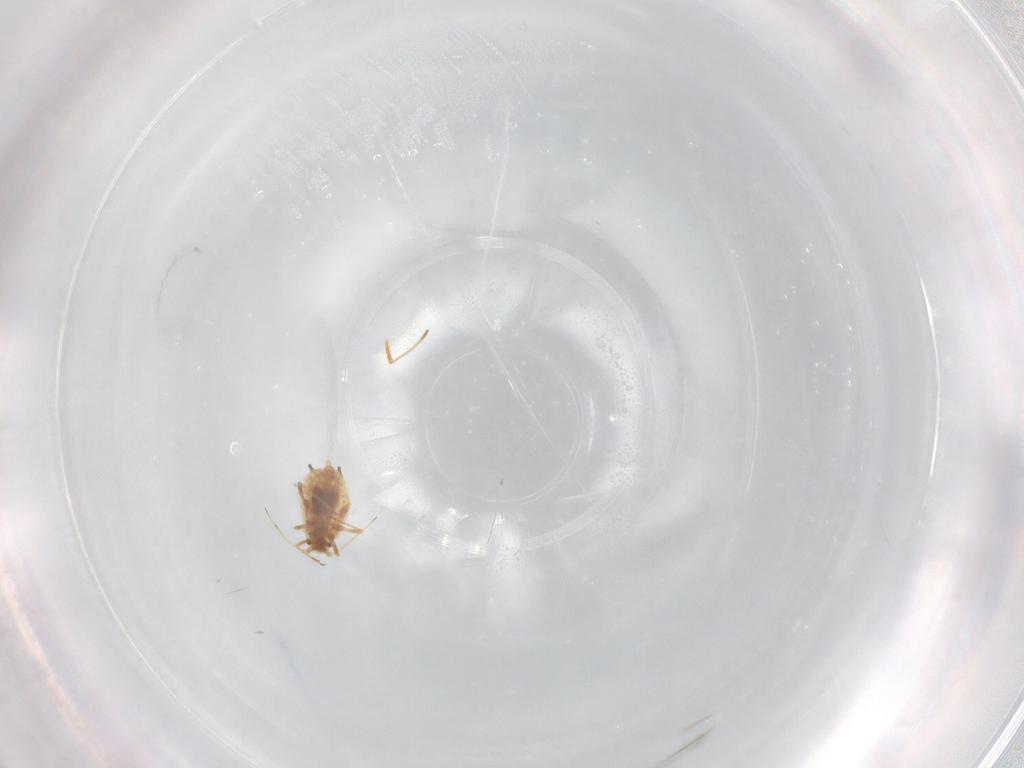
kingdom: Animalia
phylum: Arthropoda
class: Insecta
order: Hemiptera
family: Aphididae
